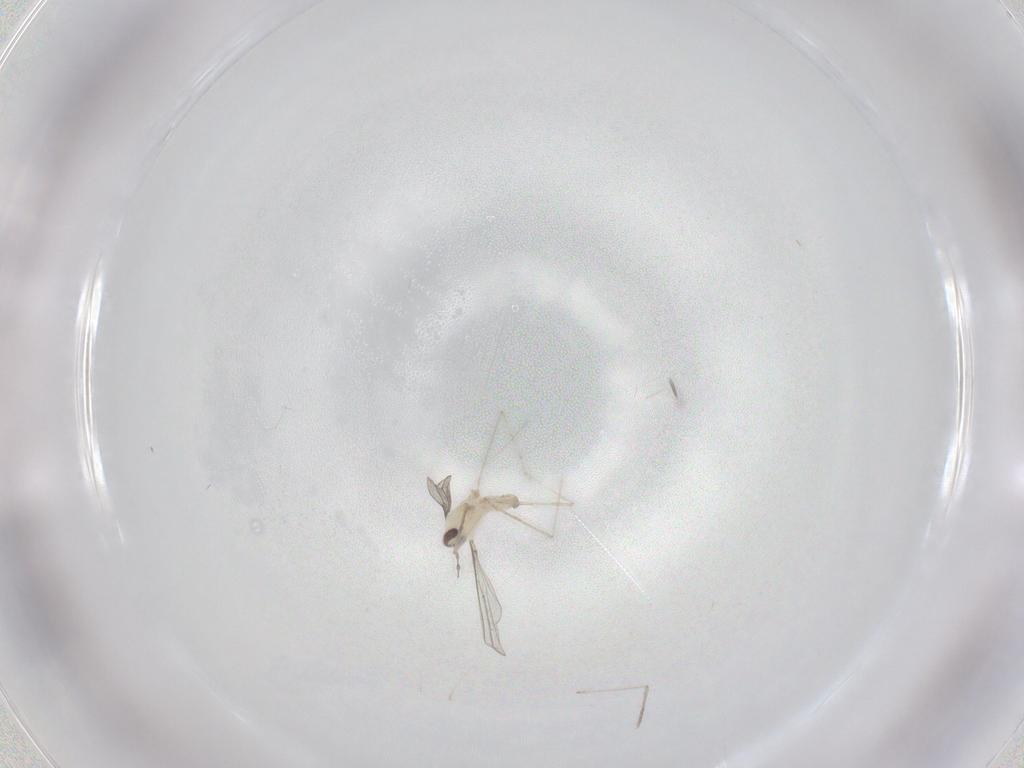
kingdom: Animalia
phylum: Arthropoda
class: Insecta
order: Diptera
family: Cecidomyiidae
